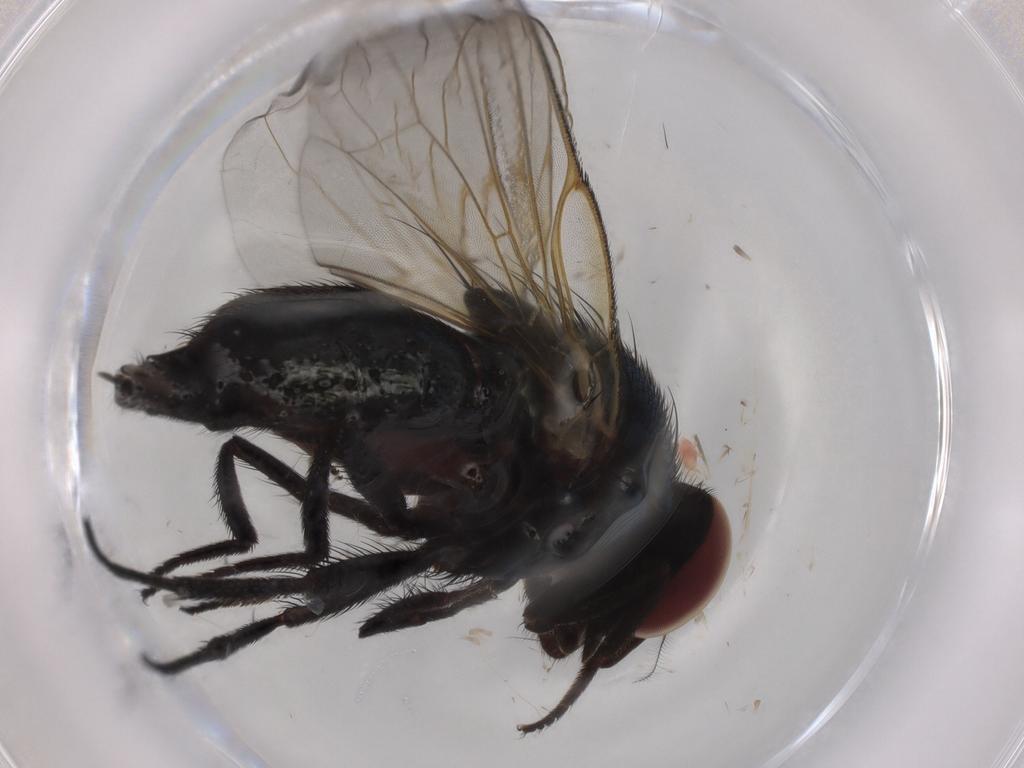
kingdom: Animalia
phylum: Arthropoda
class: Insecta
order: Diptera
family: Lonchaeidae
